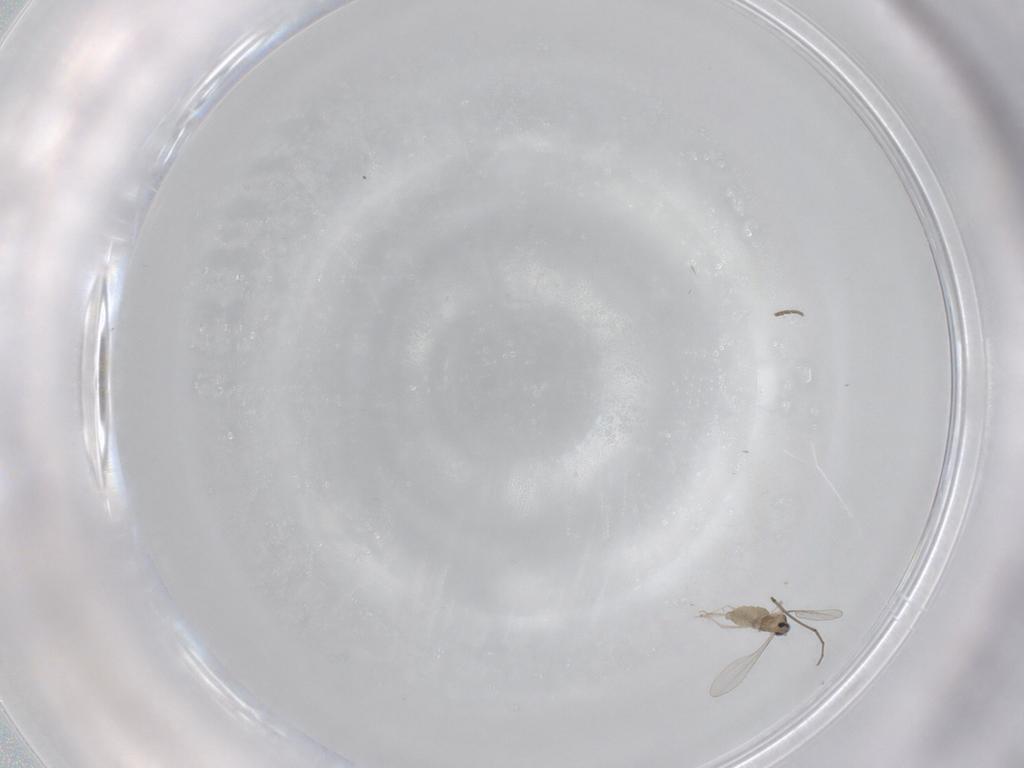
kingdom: Animalia
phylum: Arthropoda
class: Insecta
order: Diptera
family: Cecidomyiidae
